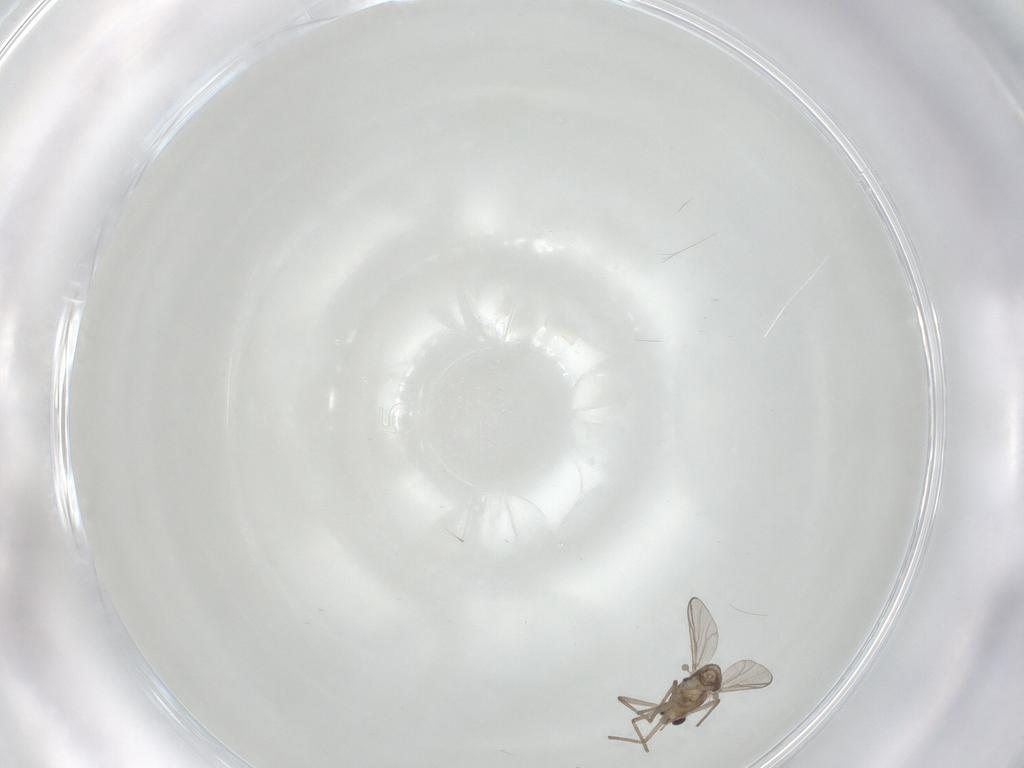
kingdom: Animalia
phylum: Arthropoda
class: Insecta
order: Diptera
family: Chironomidae
